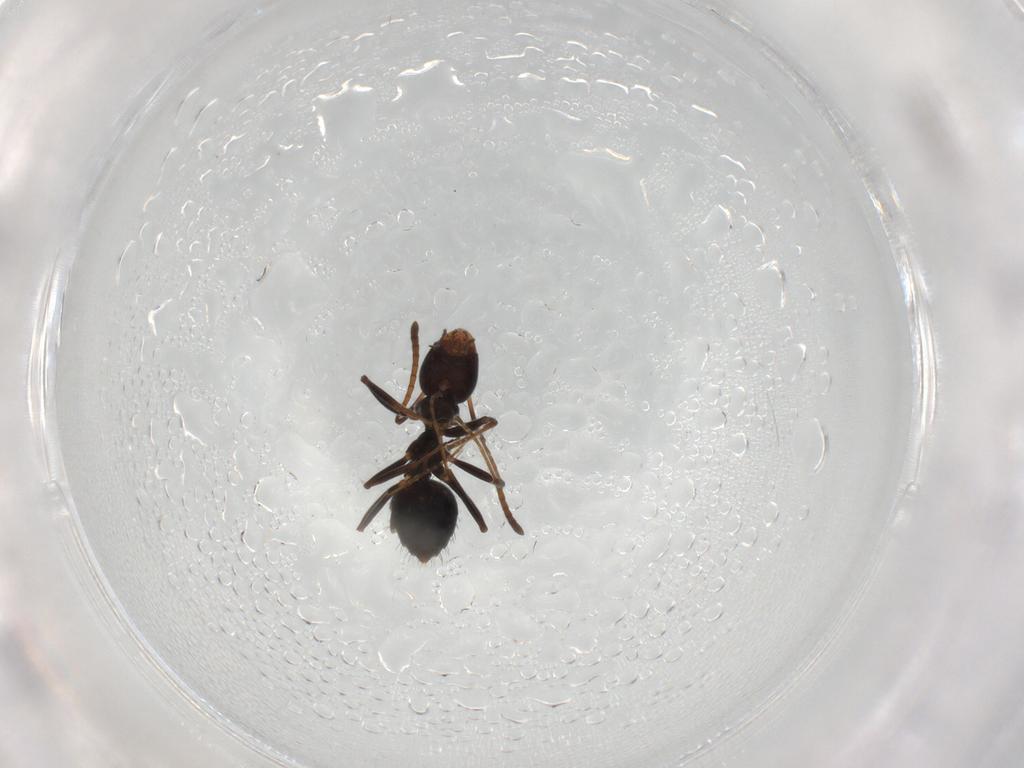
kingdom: Animalia
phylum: Arthropoda
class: Insecta
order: Hymenoptera
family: Formicidae
